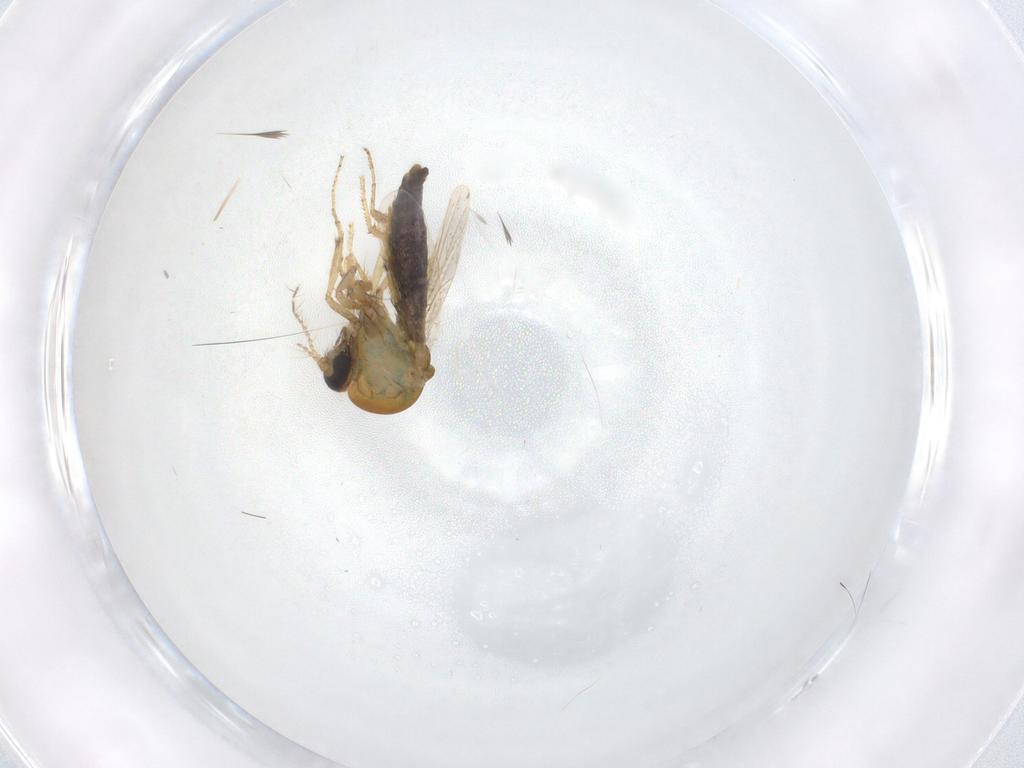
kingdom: Animalia
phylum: Arthropoda
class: Insecta
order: Diptera
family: Ceratopogonidae
